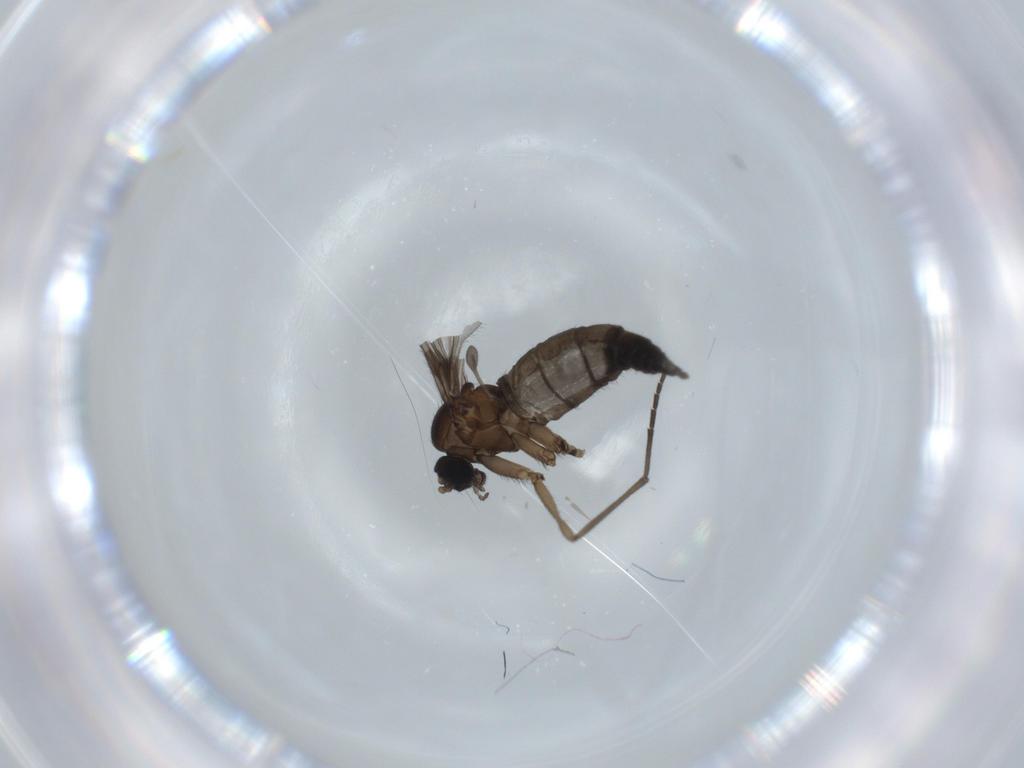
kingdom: Animalia
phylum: Arthropoda
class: Insecta
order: Diptera
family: Sciaridae
